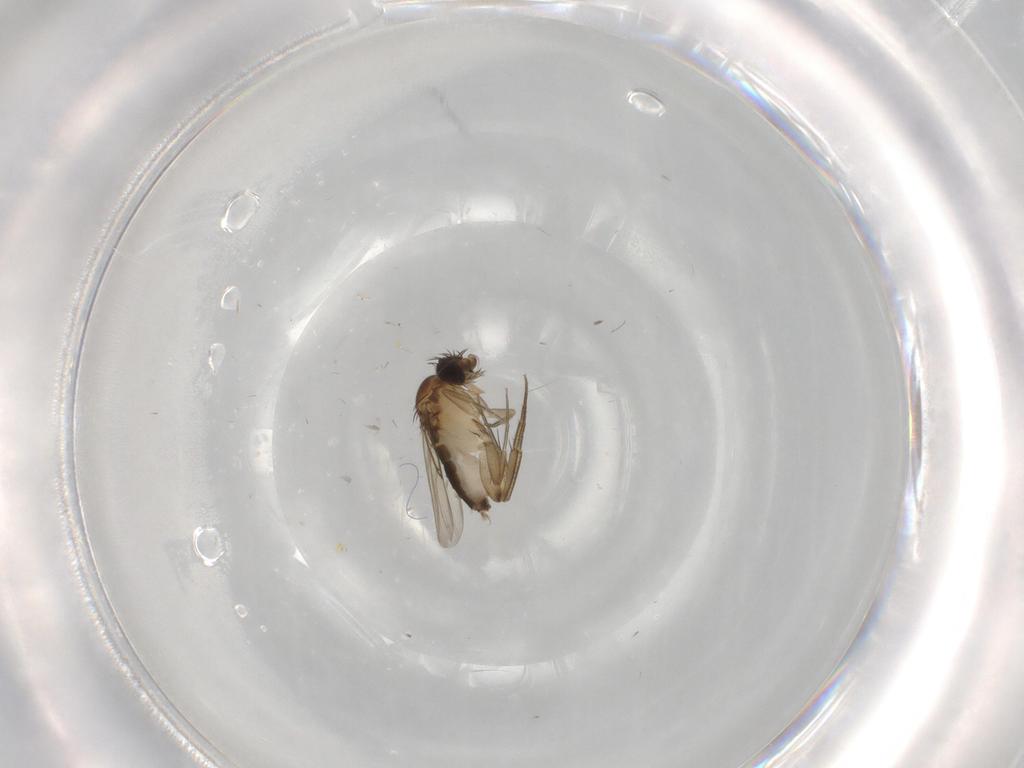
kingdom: Animalia
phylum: Arthropoda
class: Insecta
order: Diptera
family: Phoridae
